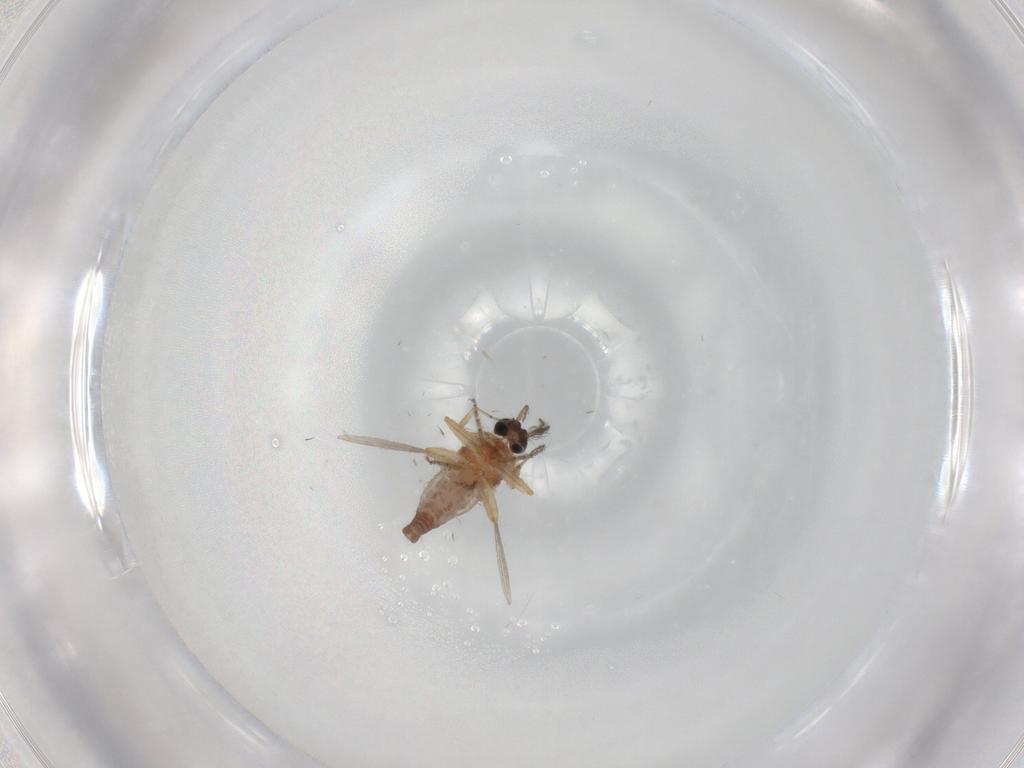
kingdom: Animalia
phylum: Arthropoda
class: Insecta
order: Diptera
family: Ceratopogonidae
